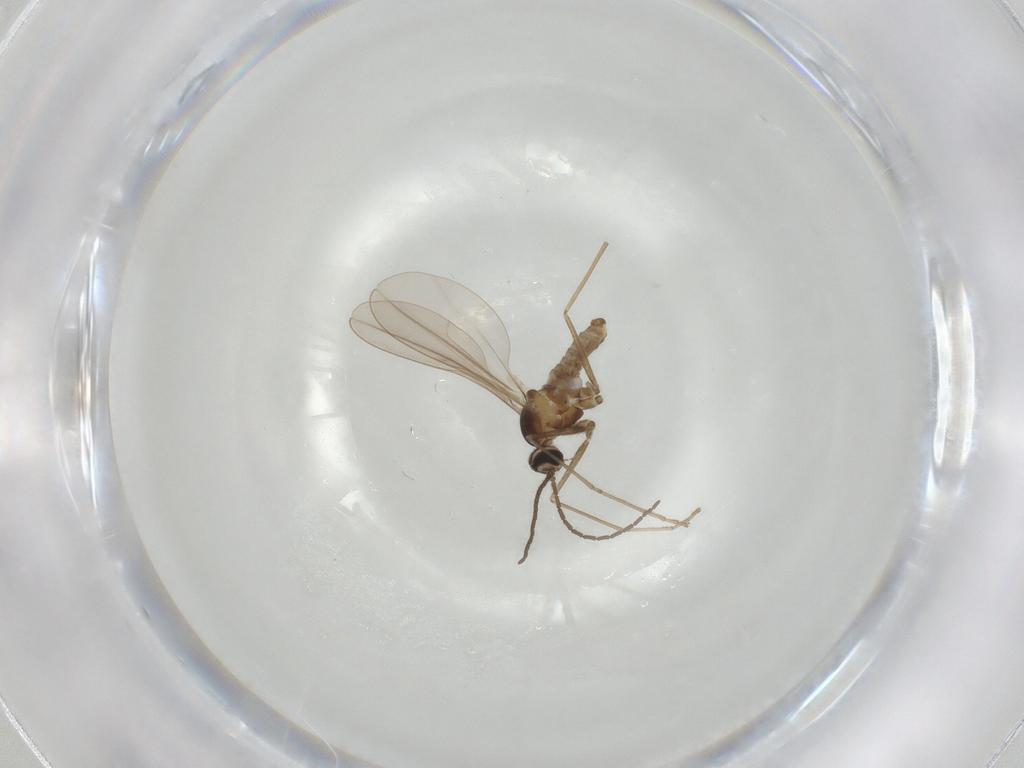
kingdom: Animalia
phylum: Arthropoda
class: Insecta
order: Diptera
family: Cecidomyiidae
